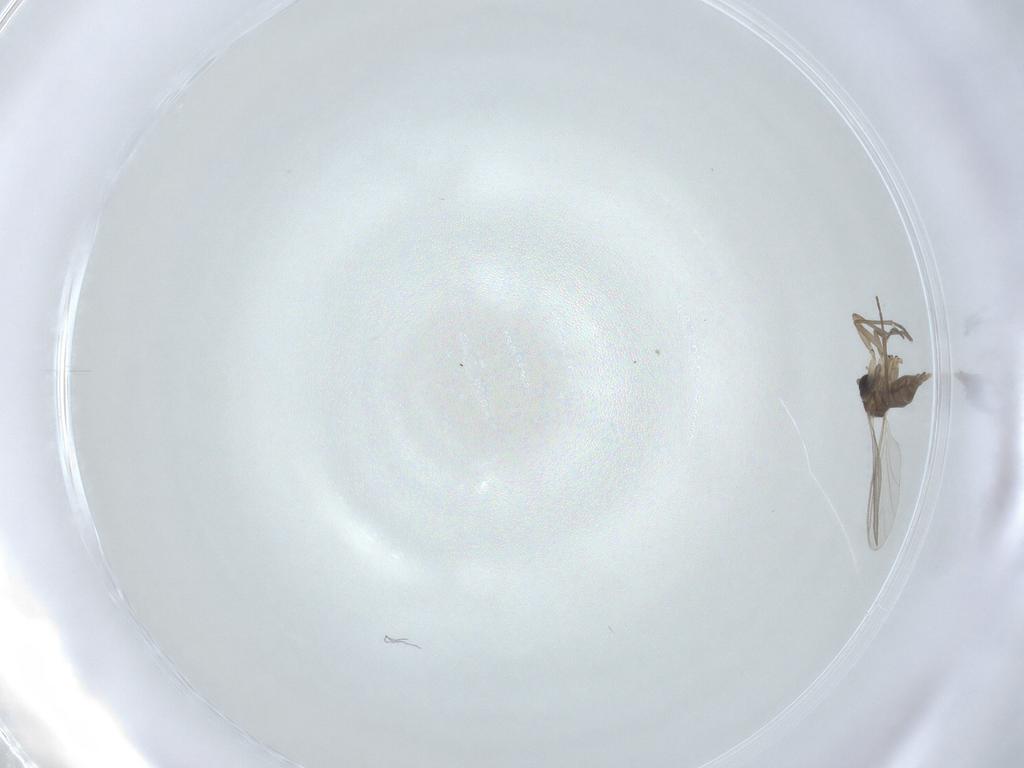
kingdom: Animalia
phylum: Arthropoda
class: Insecta
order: Diptera
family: Sciaridae
